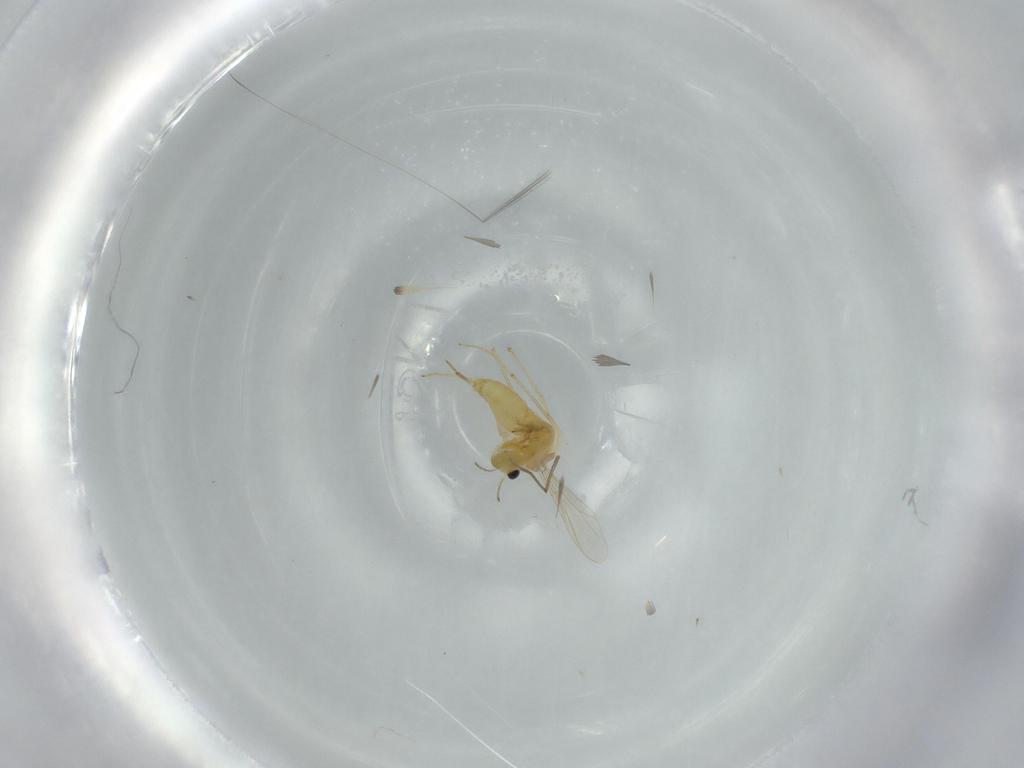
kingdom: Animalia
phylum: Arthropoda
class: Insecta
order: Diptera
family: Chironomidae
